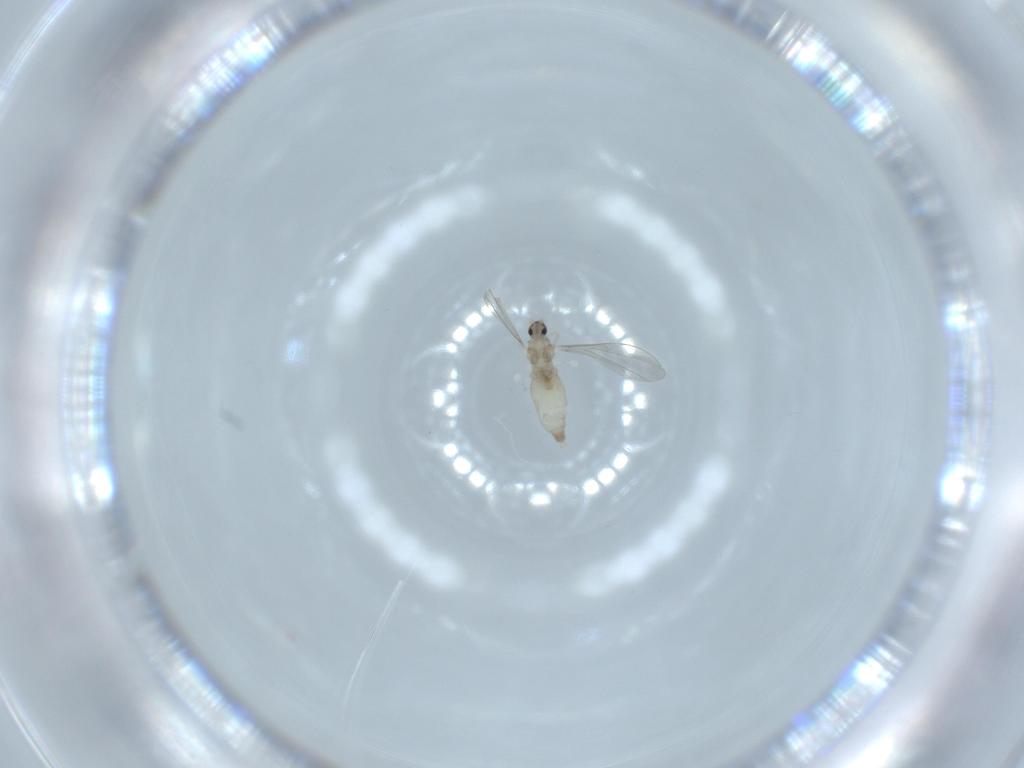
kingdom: Animalia
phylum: Arthropoda
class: Insecta
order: Diptera
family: Cecidomyiidae
